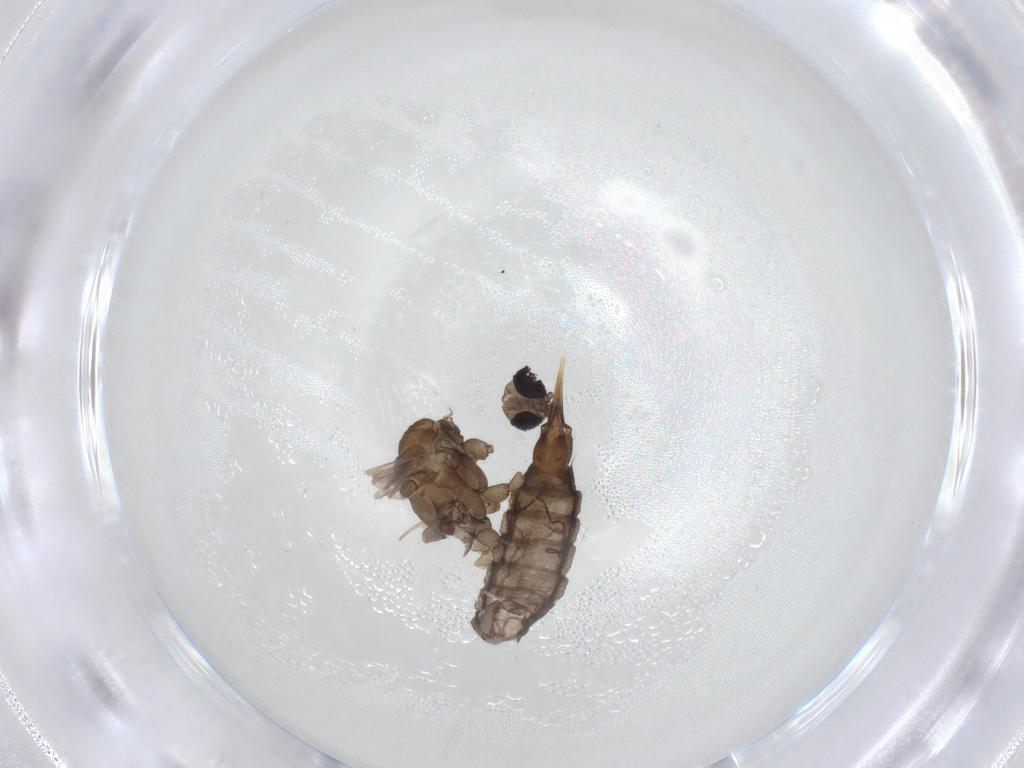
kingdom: Animalia
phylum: Arthropoda
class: Insecta
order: Diptera
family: Limoniidae
